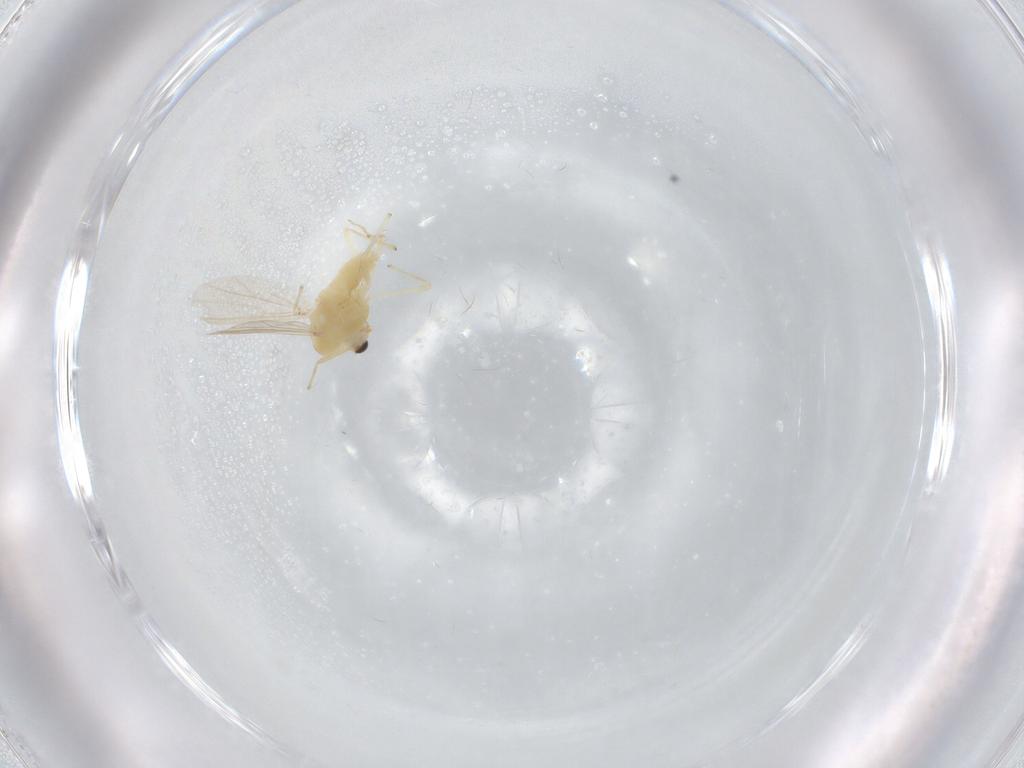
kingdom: Animalia
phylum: Arthropoda
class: Insecta
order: Diptera
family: Chironomidae
